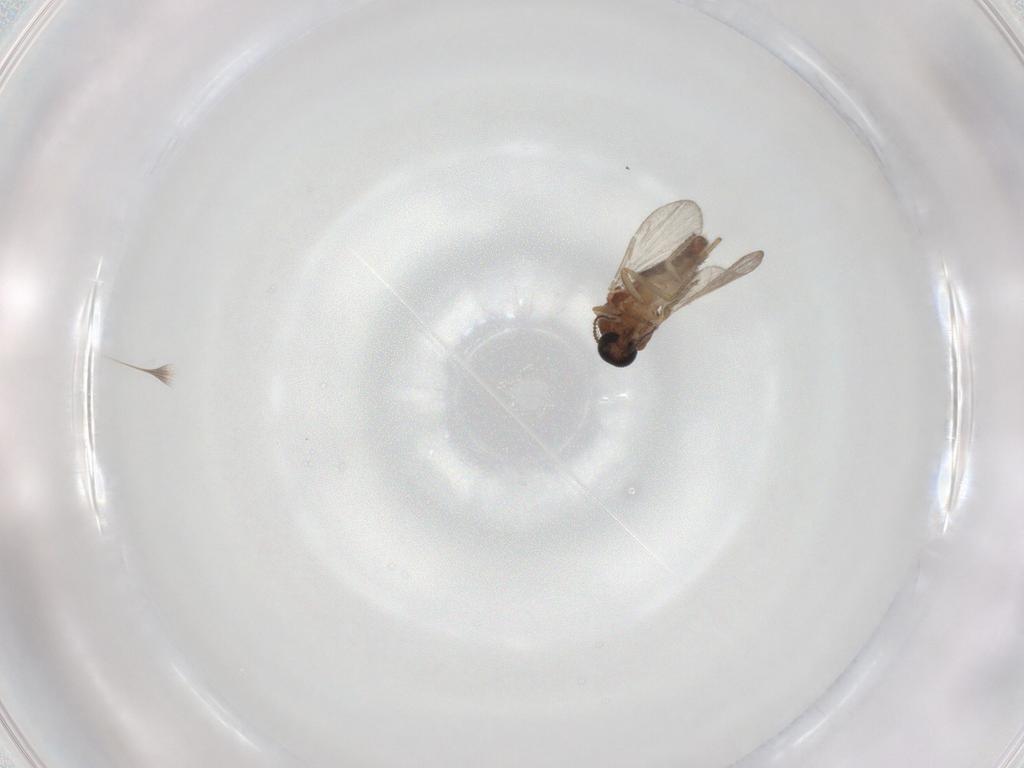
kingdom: Animalia
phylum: Arthropoda
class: Insecta
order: Diptera
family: Ceratopogonidae
